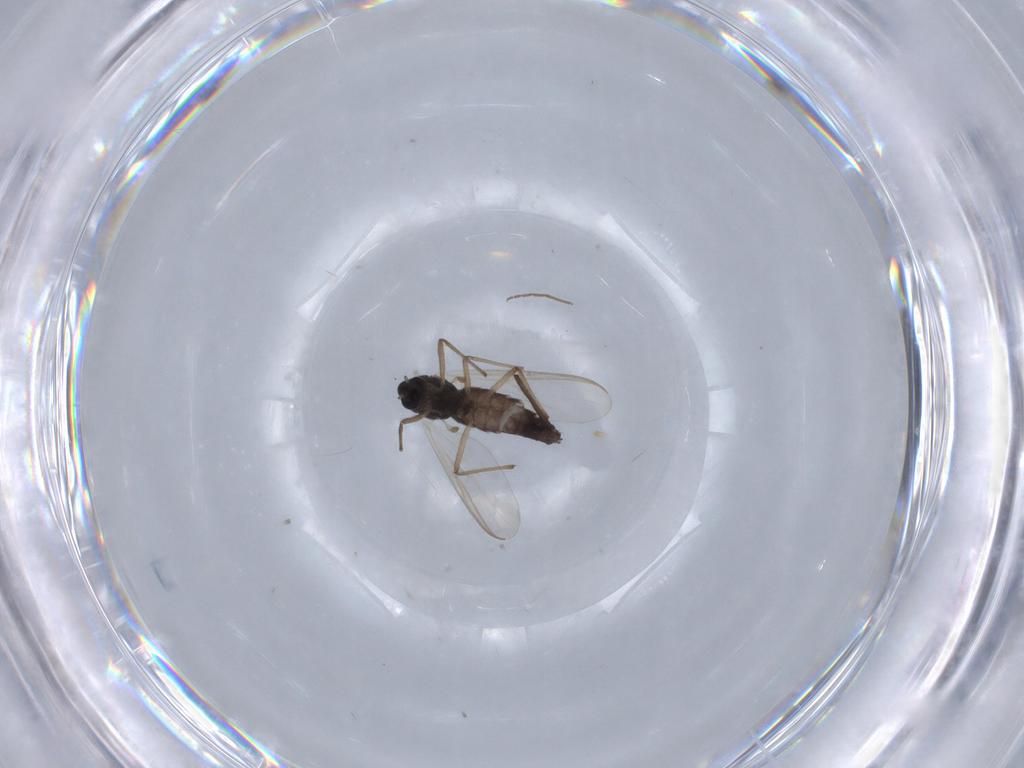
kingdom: Animalia
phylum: Arthropoda
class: Insecta
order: Diptera
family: Chironomidae
